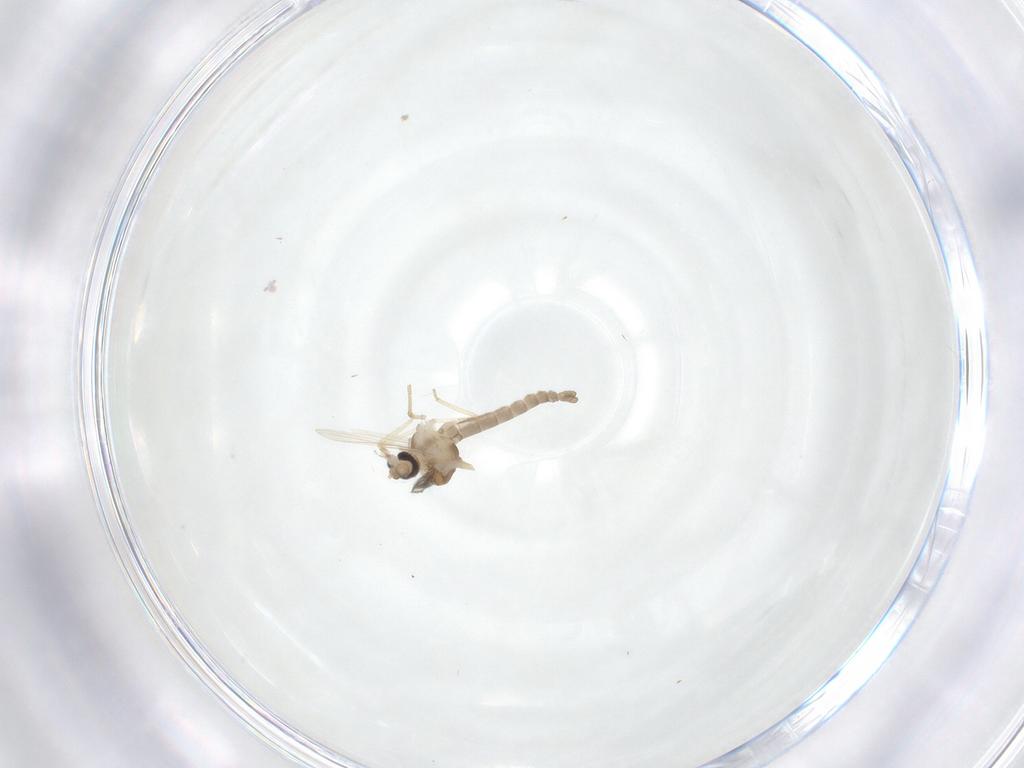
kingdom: Animalia
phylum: Arthropoda
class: Insecta
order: Diptera
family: Ceratopogonidae
